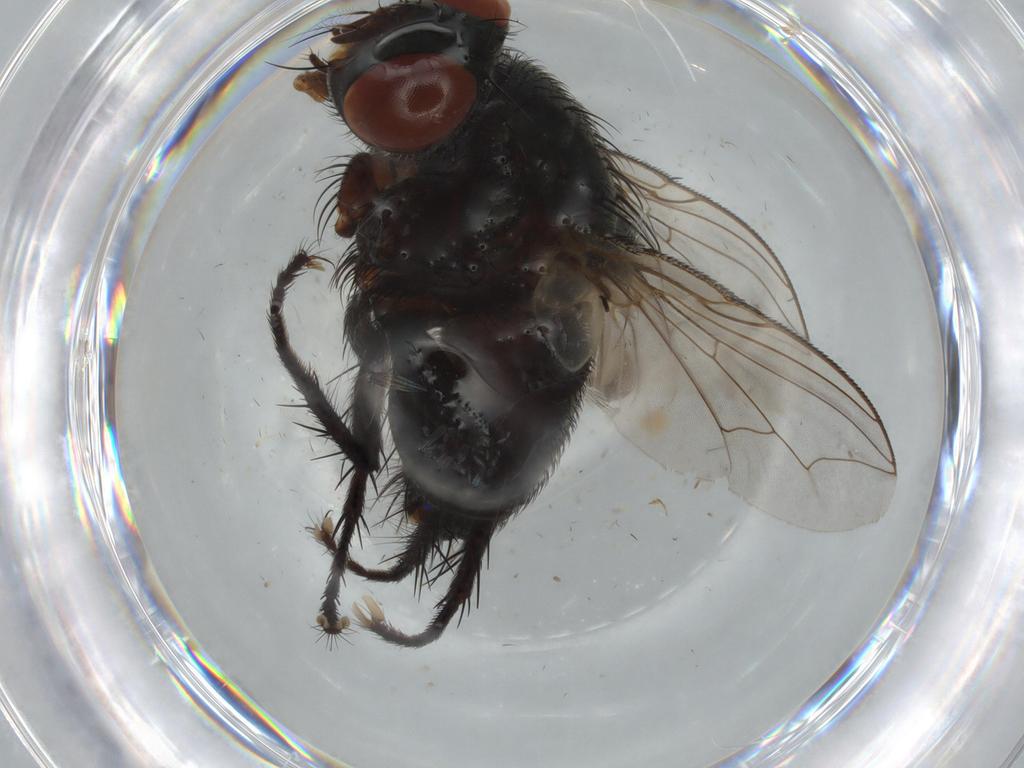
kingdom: Animalia
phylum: Arthropoda
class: Insecta
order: Diptera
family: Sarcophagidae
